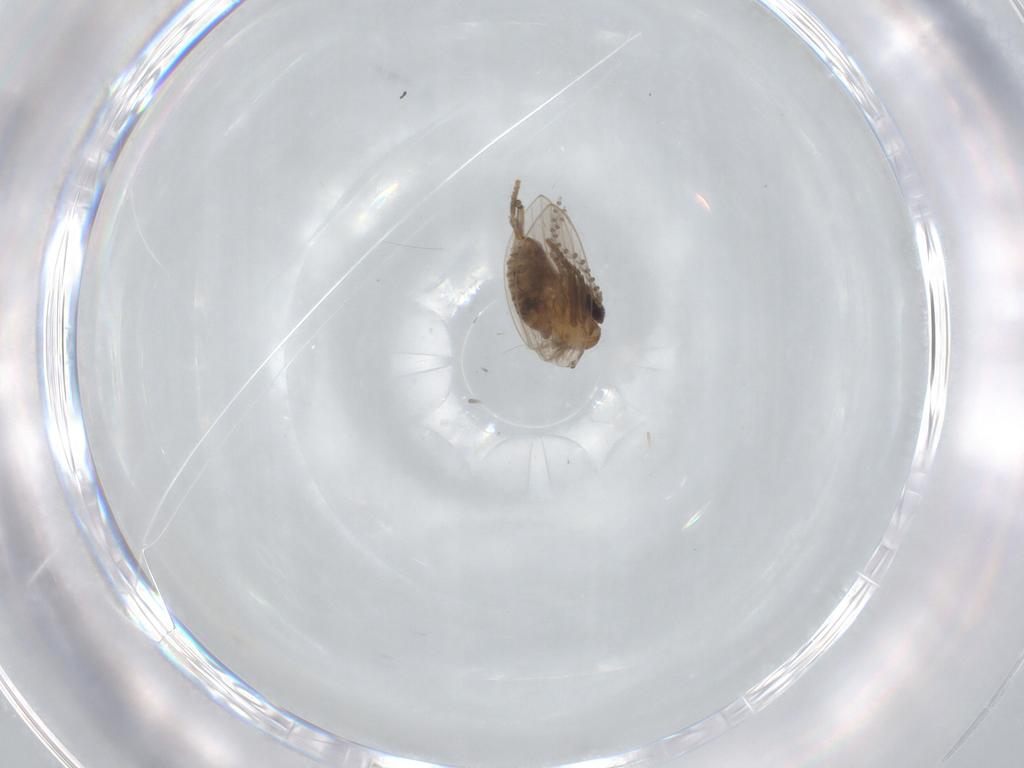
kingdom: Animalia
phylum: Arthropoda
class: Insecta
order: Diptera
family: Psychodidae
